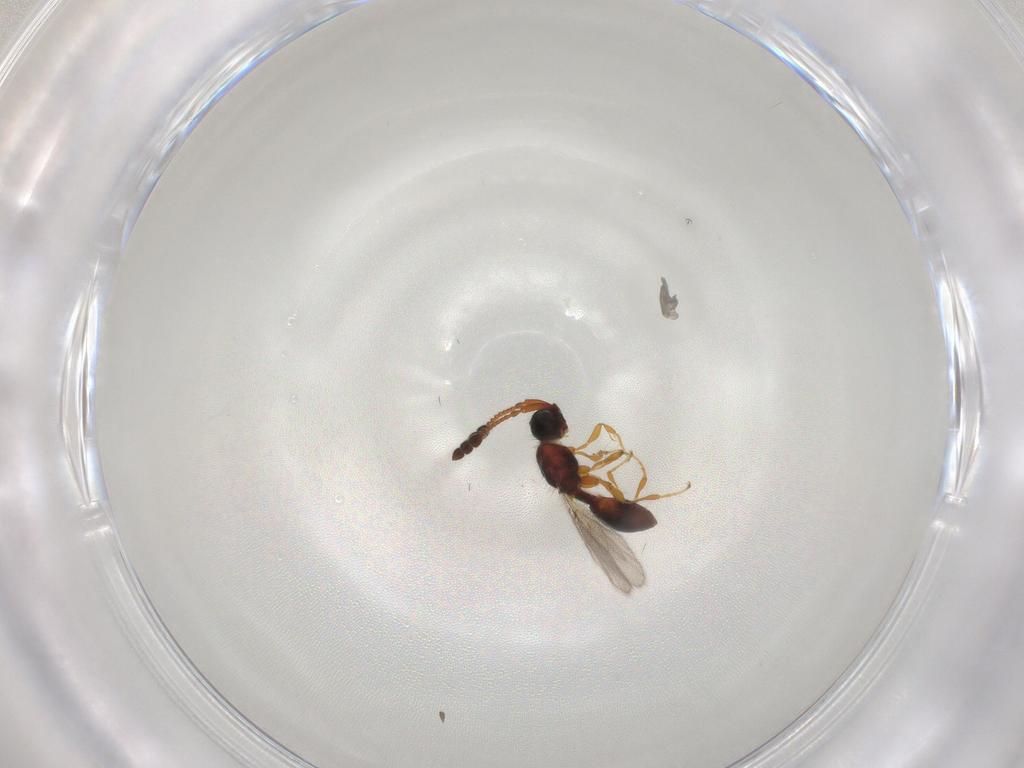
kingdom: Animalia
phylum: Arthropoda
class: Insecta
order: Hymenoptera
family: Diapriidae
